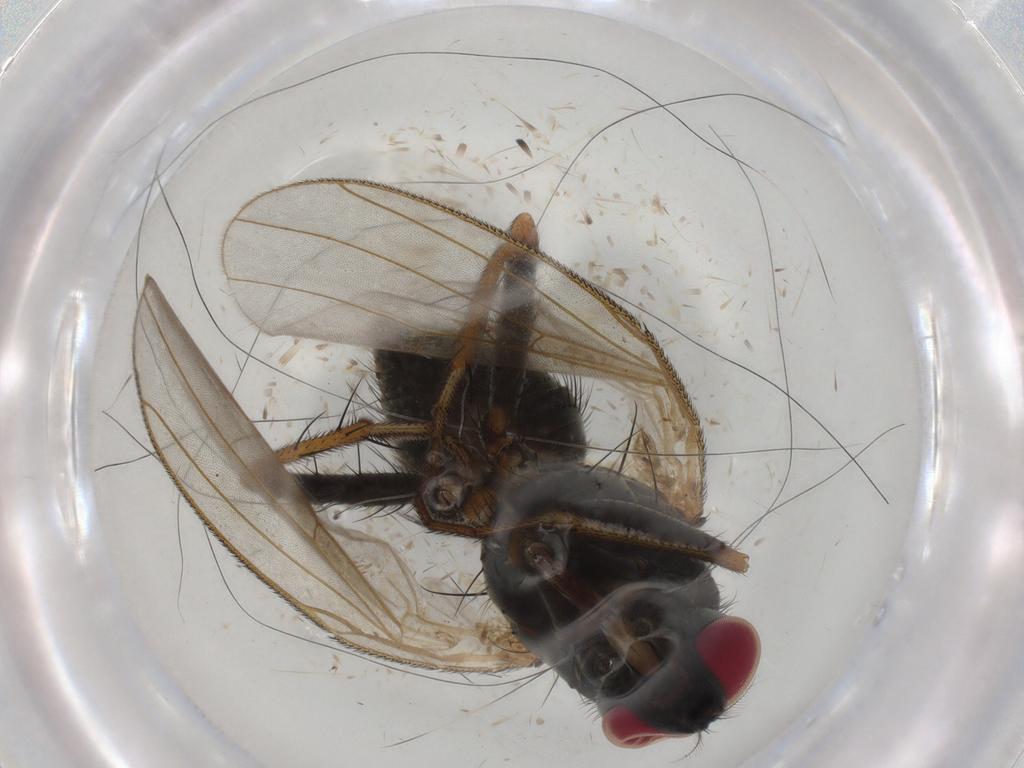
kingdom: Animalia
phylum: Arthropoda
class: Insecta
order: Diptera
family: Muscidae
